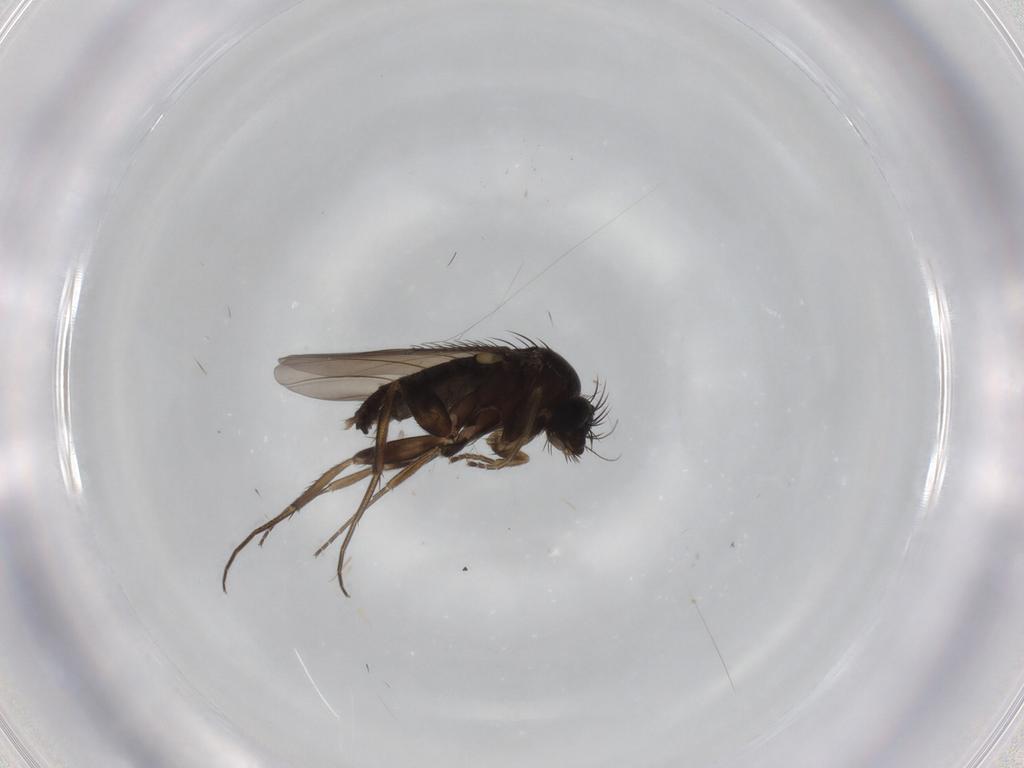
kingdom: Animalia
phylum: Arthropoda
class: Insecta
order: Diptera
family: Phoridae
